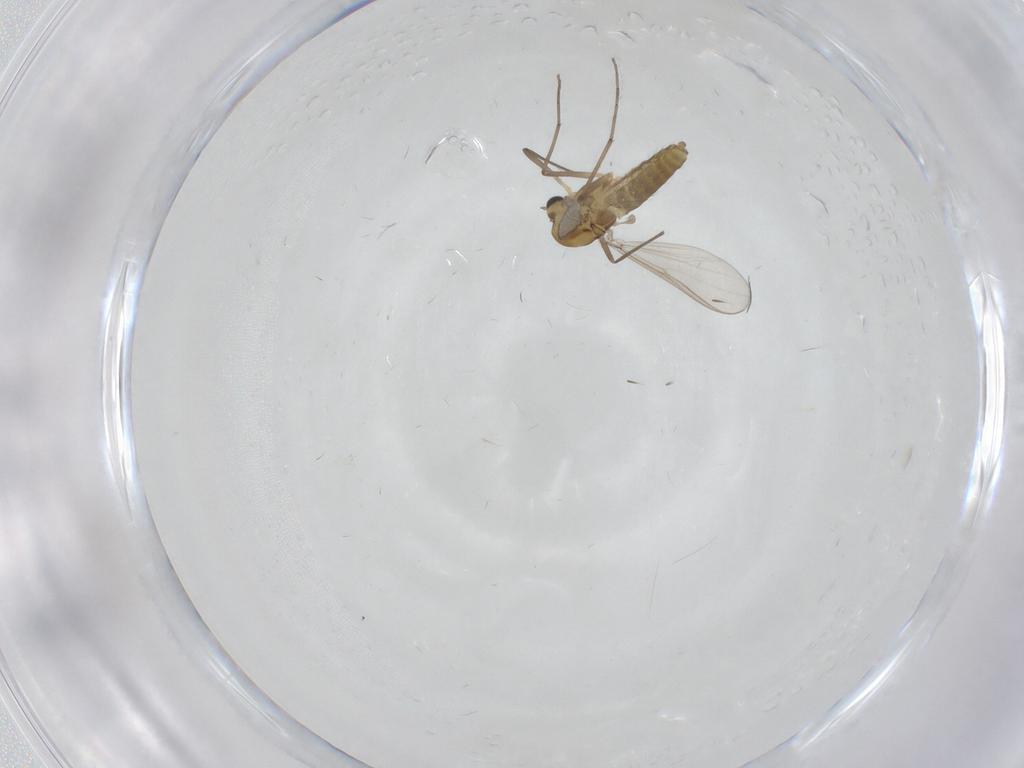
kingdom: Animalia
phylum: Arthropoda
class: Insecta
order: Diptera
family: Chironomidae
